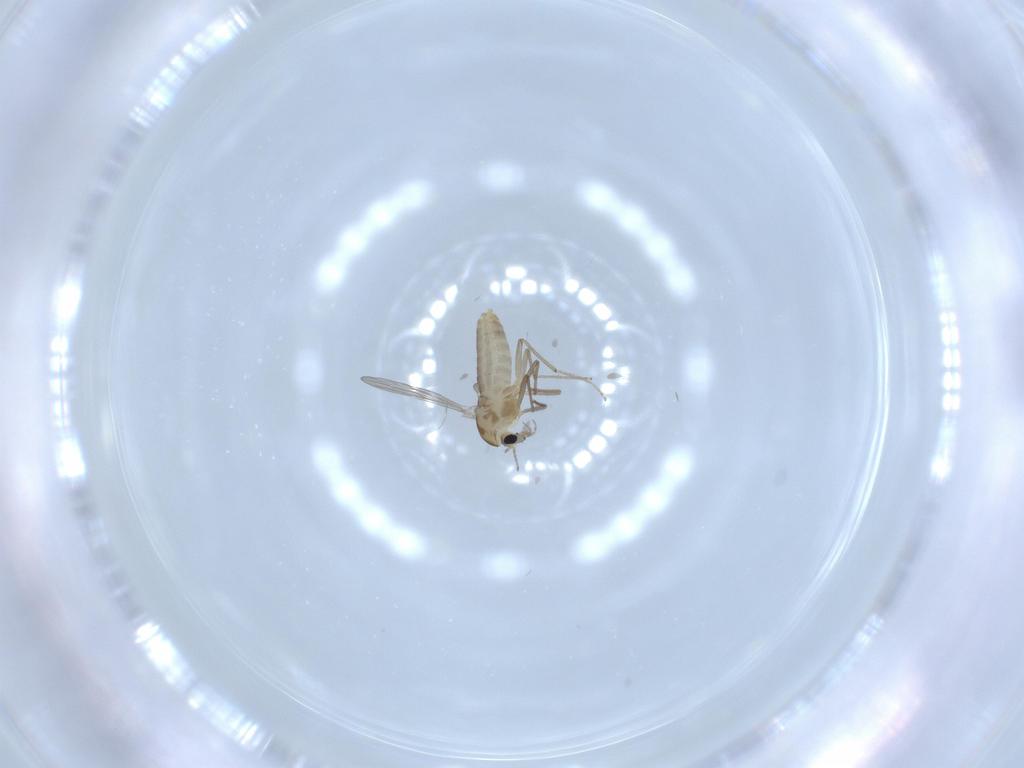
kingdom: Animalia
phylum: Arthropoda
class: Insecta
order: Diptera
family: Chironomidae
